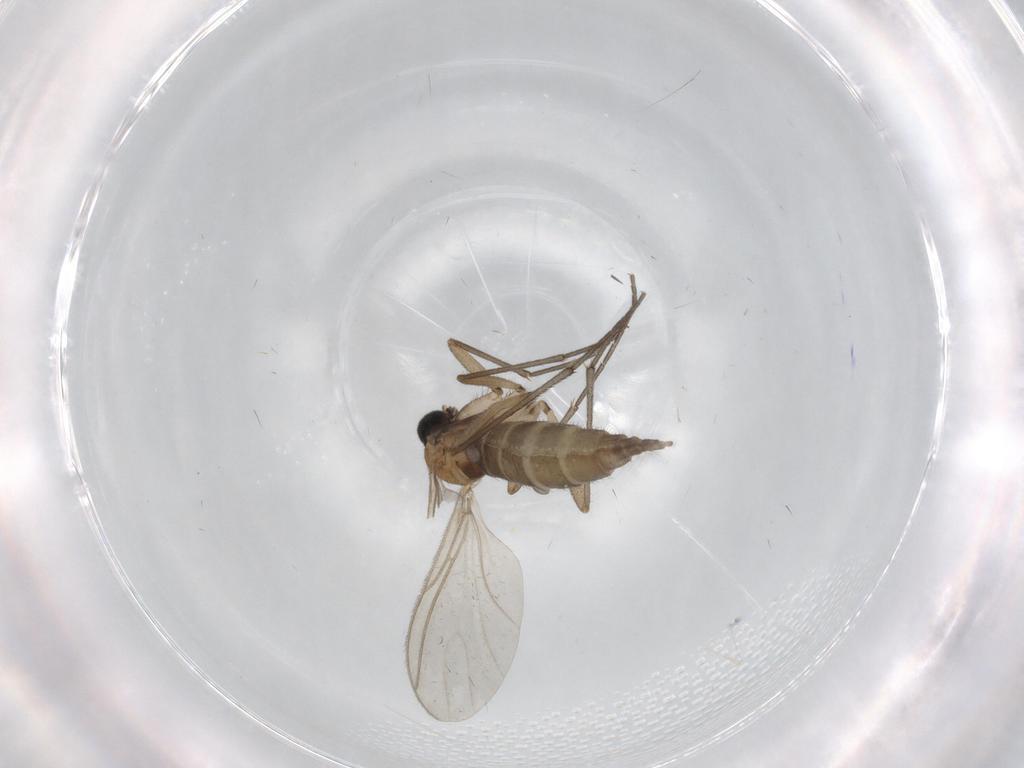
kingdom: Animalia
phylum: Arthropoda
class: Insecta
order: Diptera
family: Sciaridae
